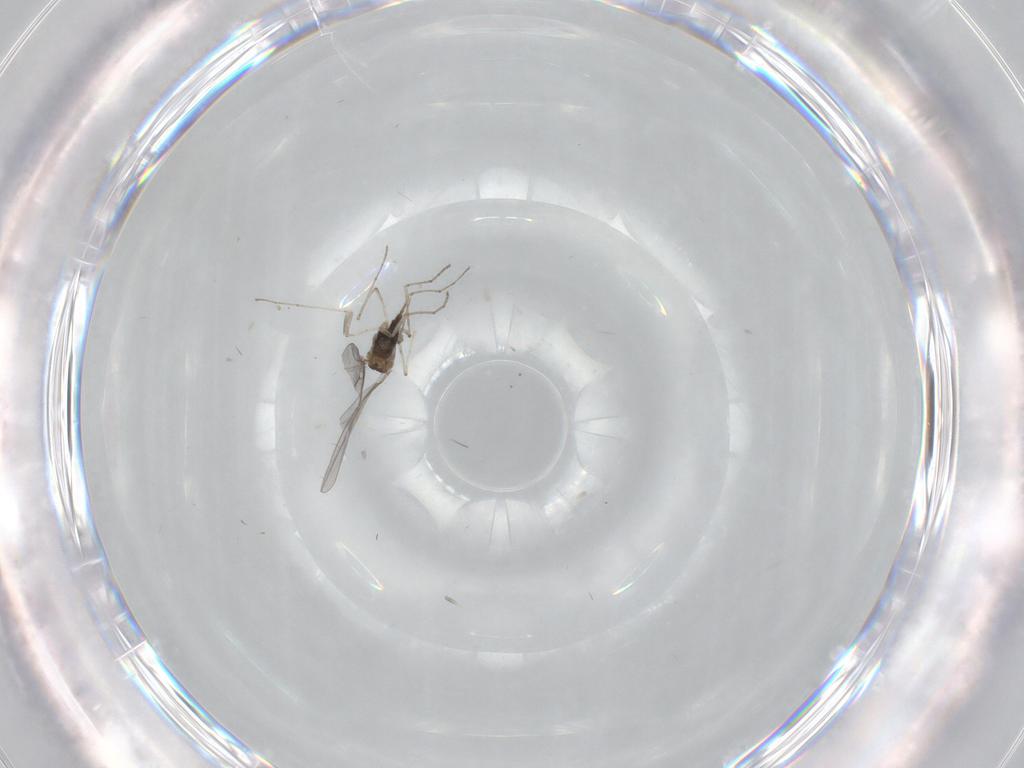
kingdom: Animalia
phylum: Arthropoda
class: Insecta
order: Diptera
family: Cecidomyiidae
